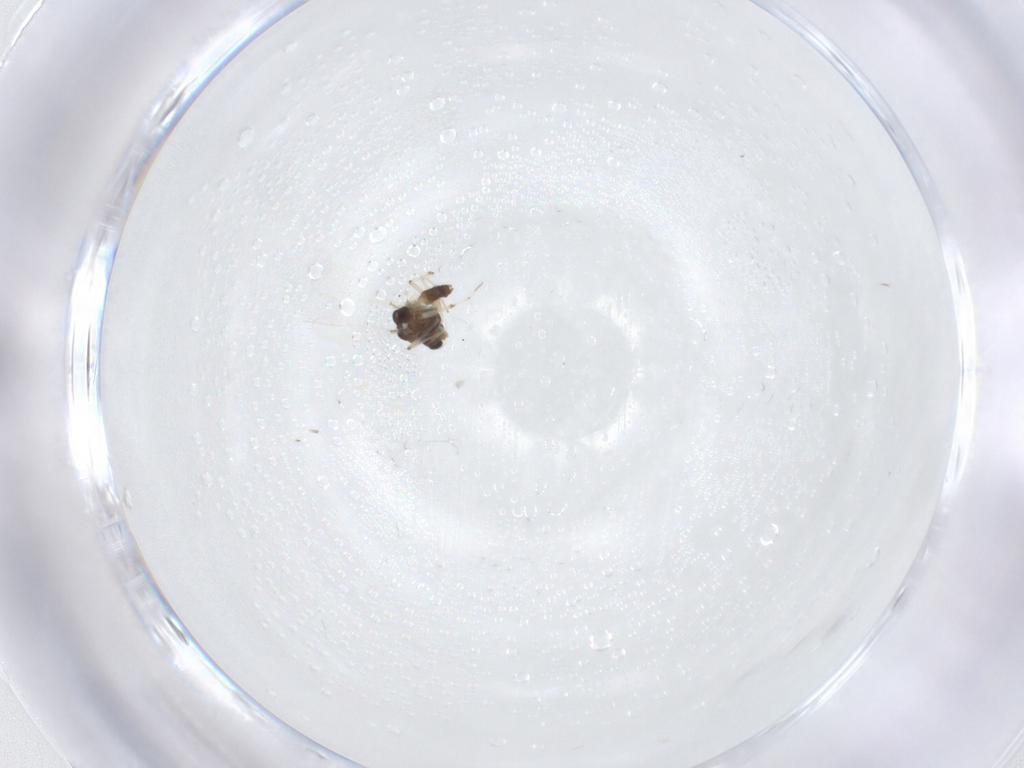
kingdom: Animalia
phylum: Arthropoda
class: Insecta
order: Diptera
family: Chironomidae
